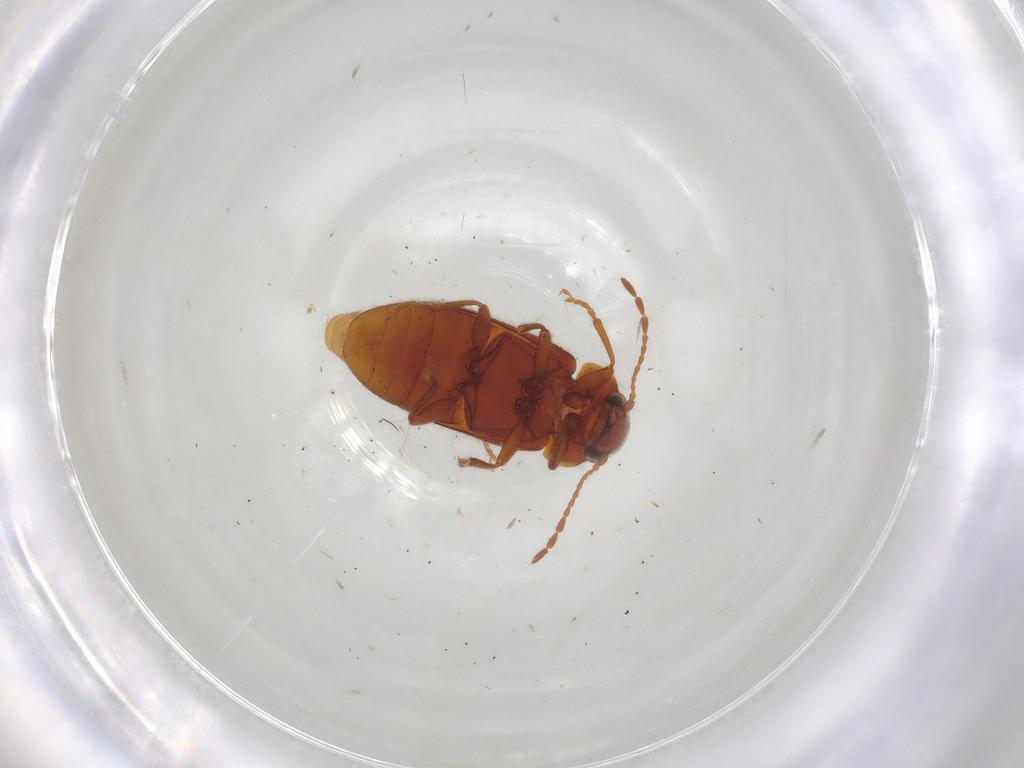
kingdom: Animalia
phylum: Arthropoda
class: Insecta
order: Coleoptera
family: Ptinidae
